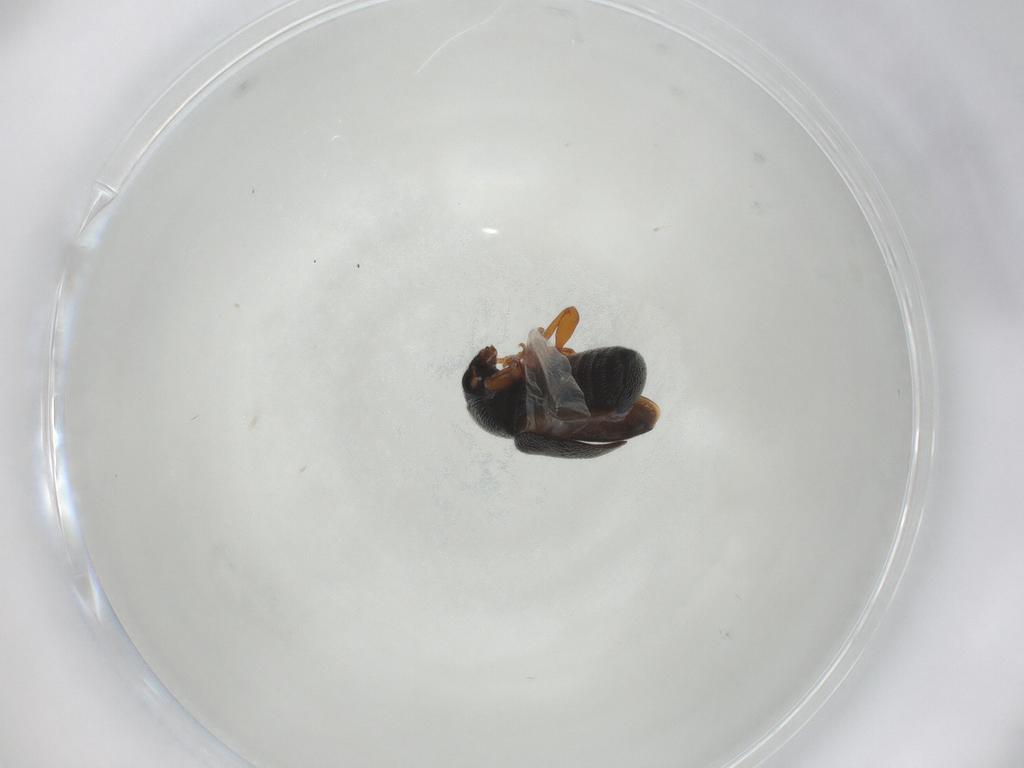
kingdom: Animalia
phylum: Arthropoda
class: Insecta
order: Coleoptera
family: Anthribidae
